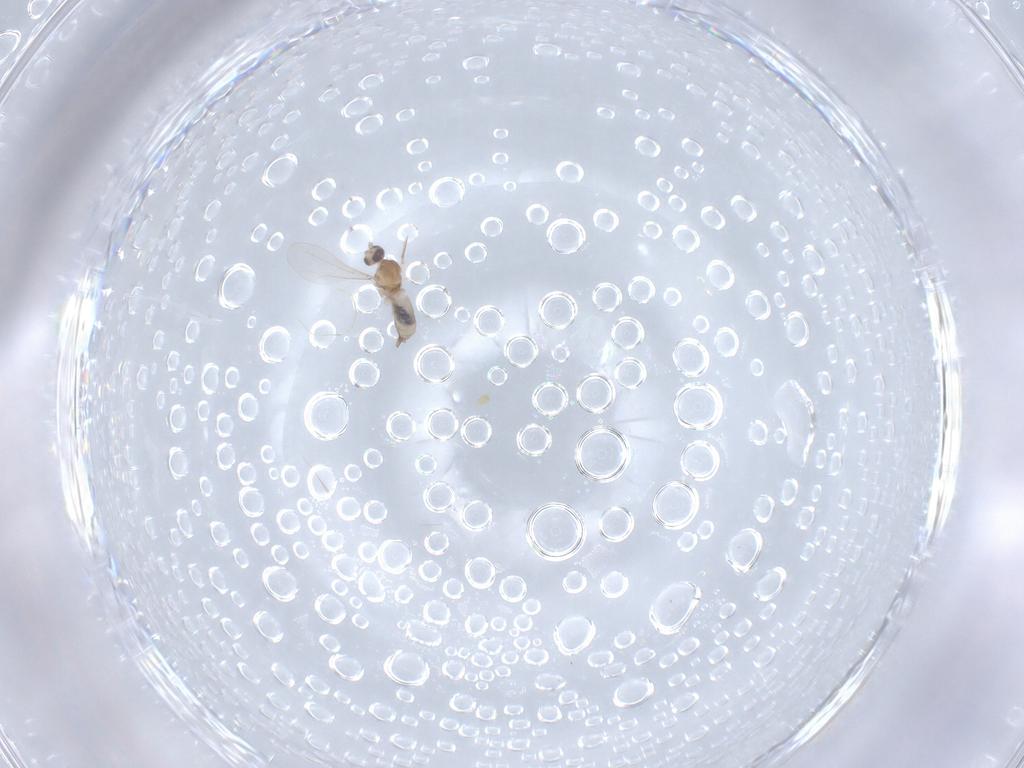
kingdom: Animalia
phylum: Arthropoda
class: Insecta
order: Diptera
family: Cecidomyiidae
